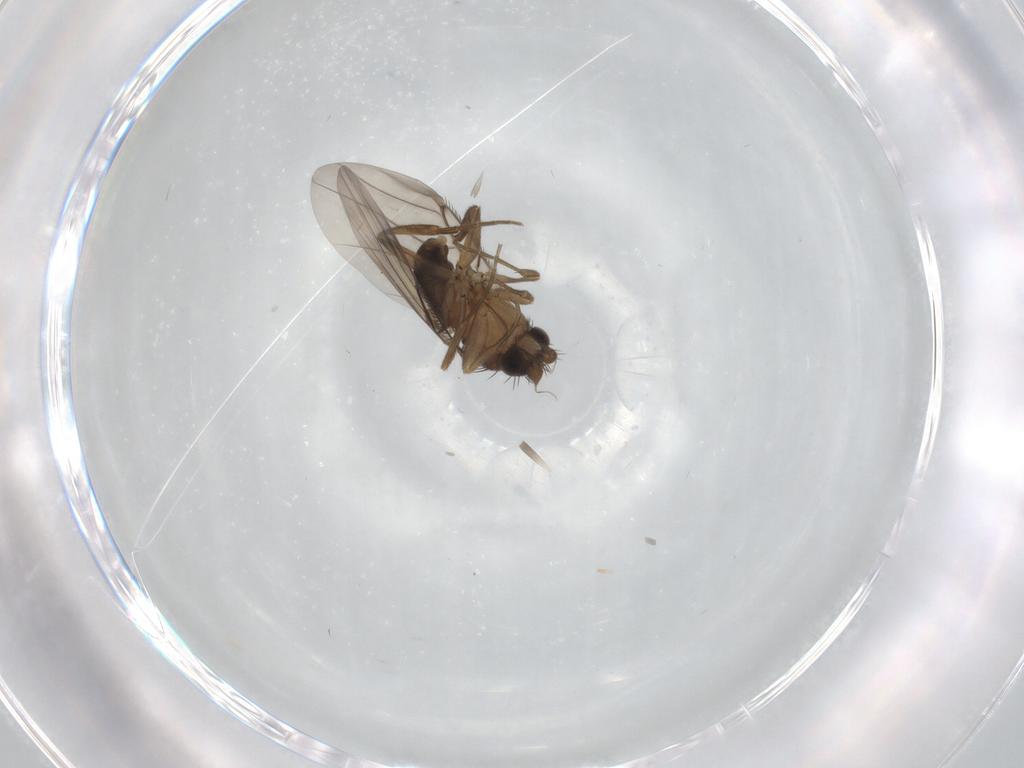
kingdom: Animalia
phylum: Arthropoda
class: Insecta
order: Diptera
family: Phoridae
